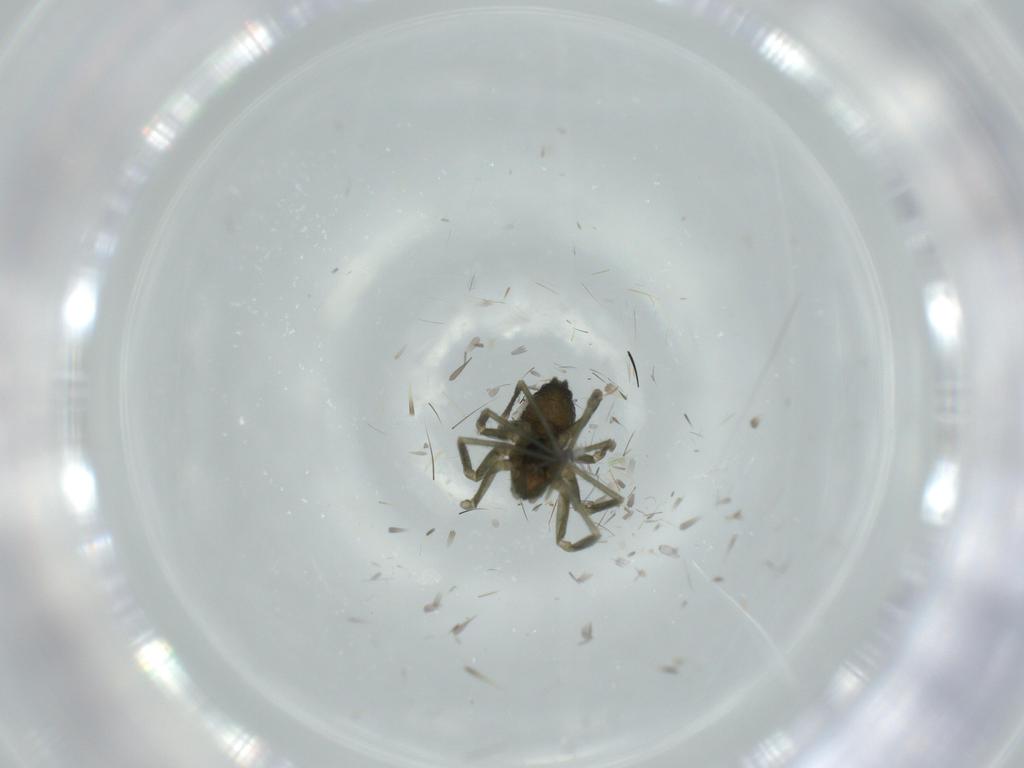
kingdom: Animalia
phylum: Arthropoda
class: Arachnida
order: Araneae
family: Linyphiidae
